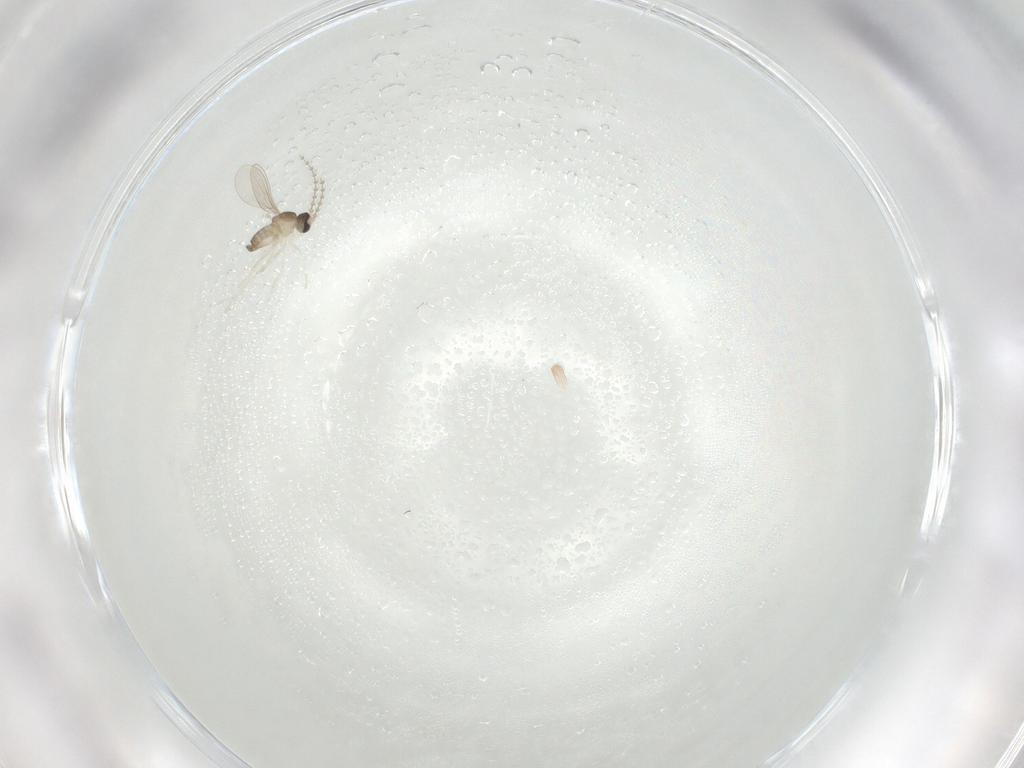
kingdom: Animalia
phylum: Arthropoda
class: Insecta
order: Diptera
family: Cecidomyiidae
